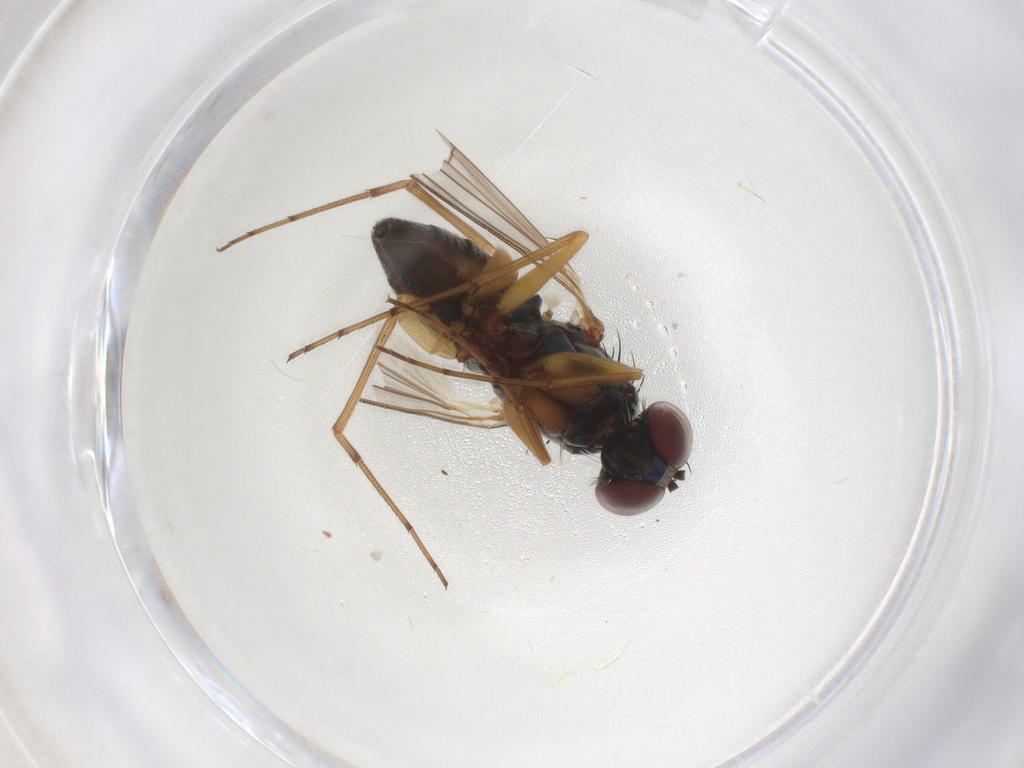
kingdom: Animalia
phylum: Arthropoda
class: Insecta
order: Hymenoptera
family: Ichneumonidae
